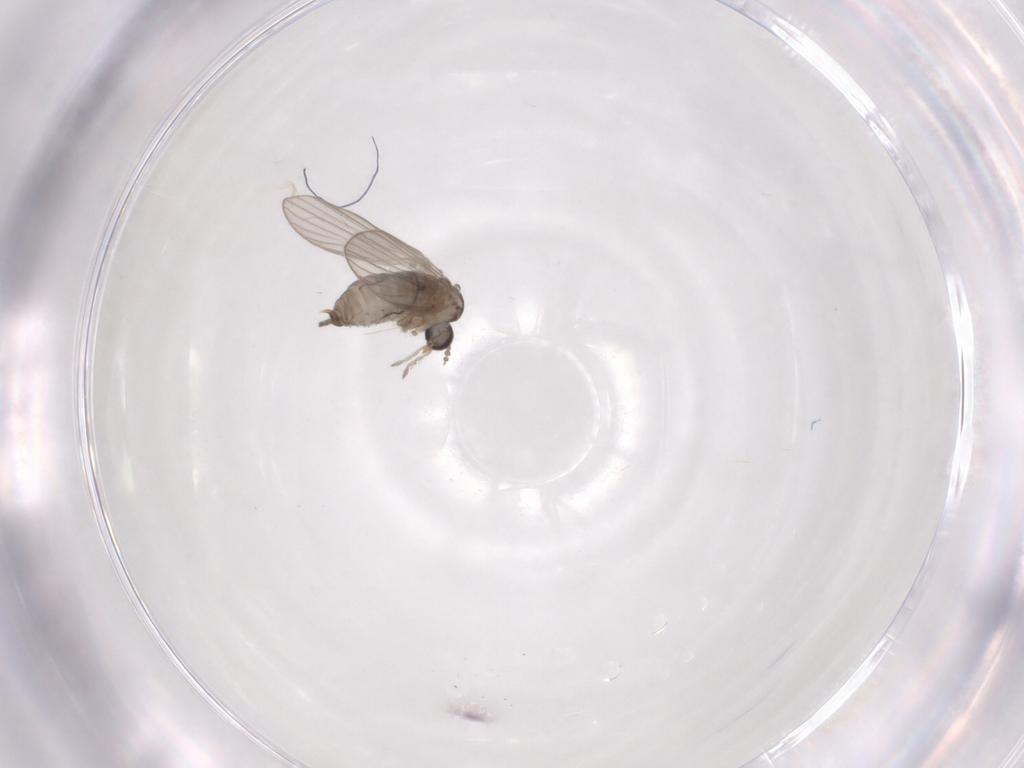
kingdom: Animalia
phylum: Arthropoda
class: Insecta
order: Diptera
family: Psychodidae
